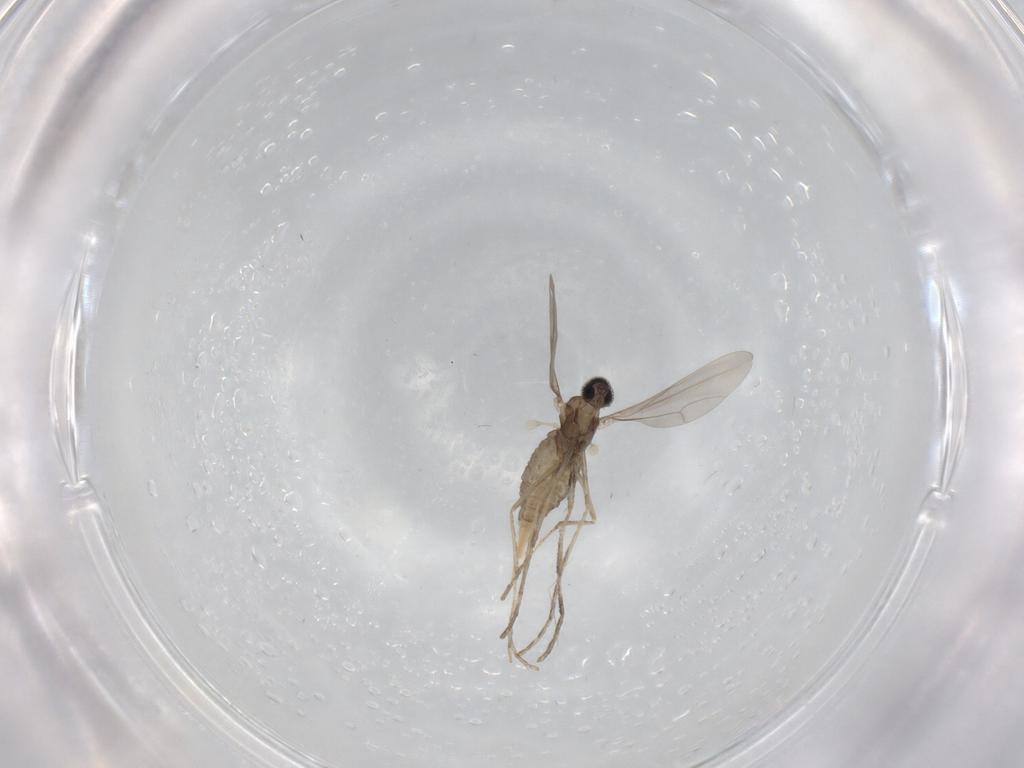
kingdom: Animalia
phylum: Arthropoda
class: Insecta
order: Diptera
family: Cecidomyiidae
